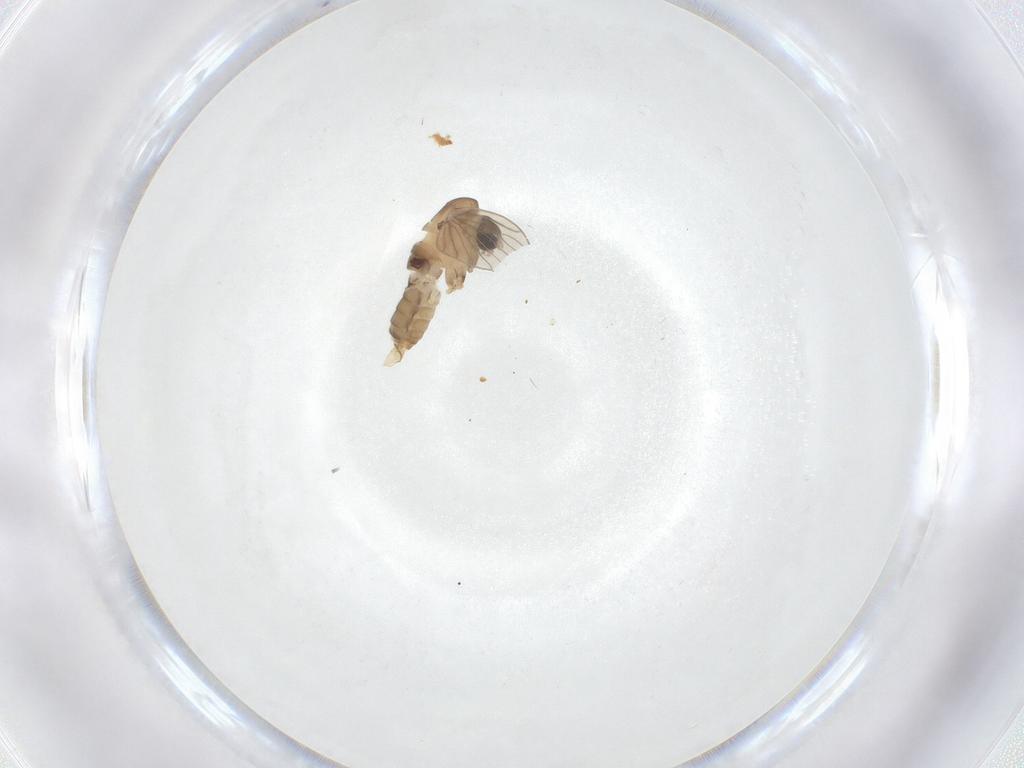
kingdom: Animalia
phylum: Arthropoda
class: Insecta
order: Diptera
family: Psychodidae
